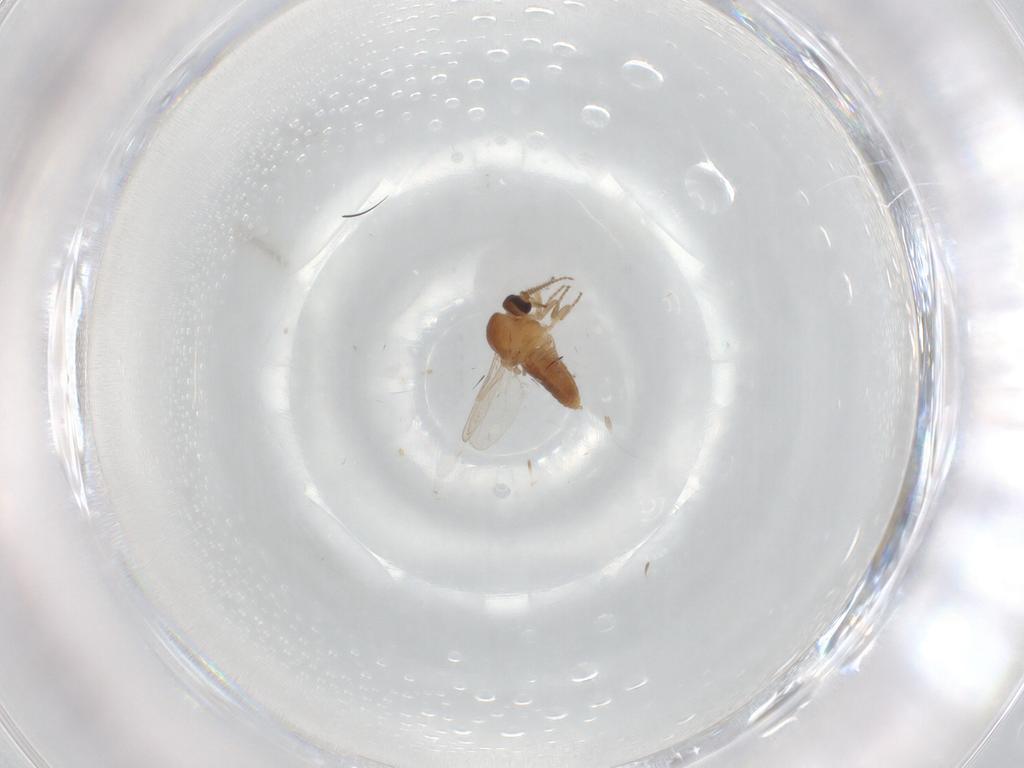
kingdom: Animalia
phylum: Arthropoda
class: Insecta
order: Diptera
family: Ceratopogonidae
